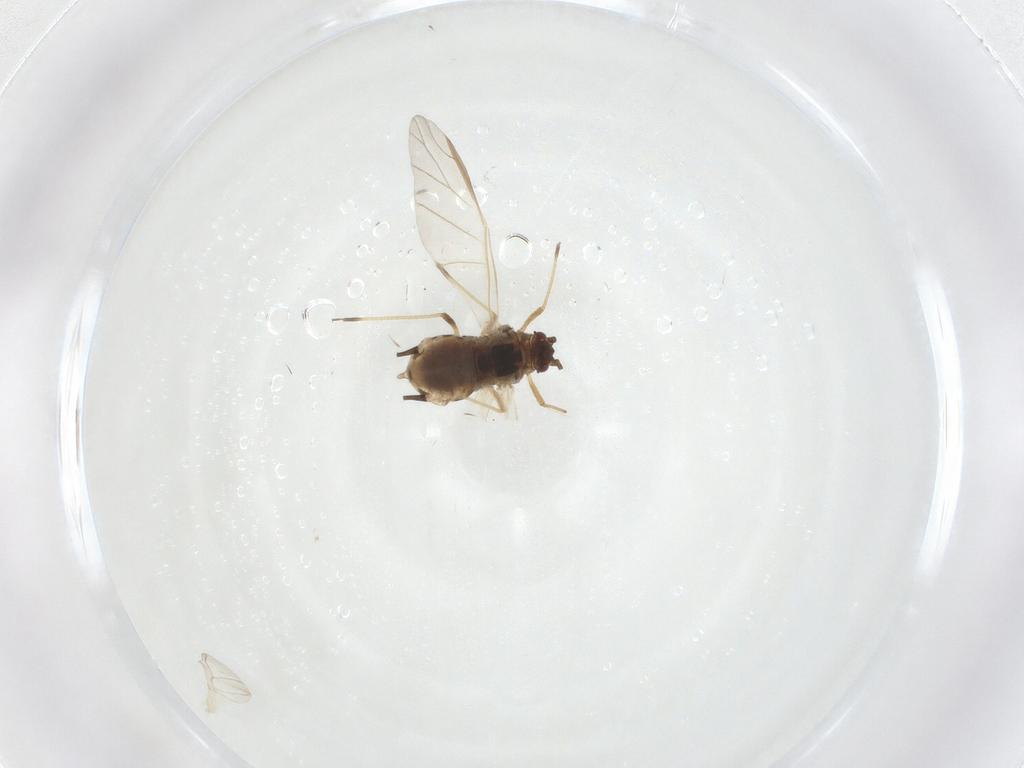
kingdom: Animalia
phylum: Arthropoda
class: Insecta
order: Hemiptera
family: Aphididae
